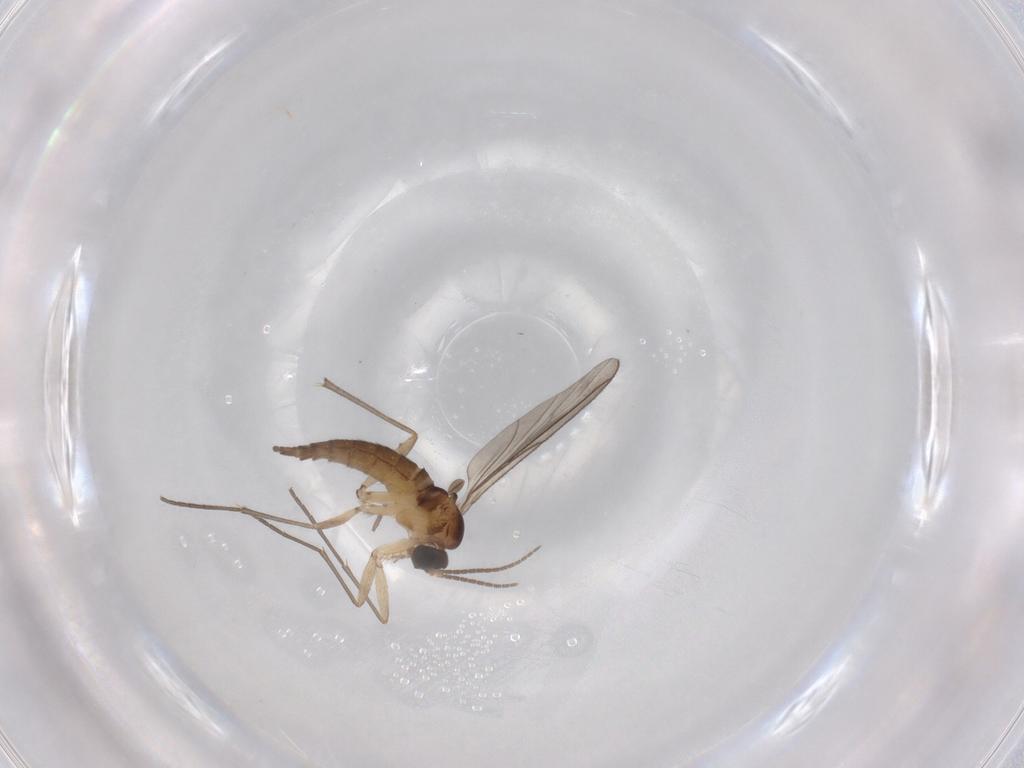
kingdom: Animalia
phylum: Arthropoda
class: Insecta
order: Diptera
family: Sciaridae
